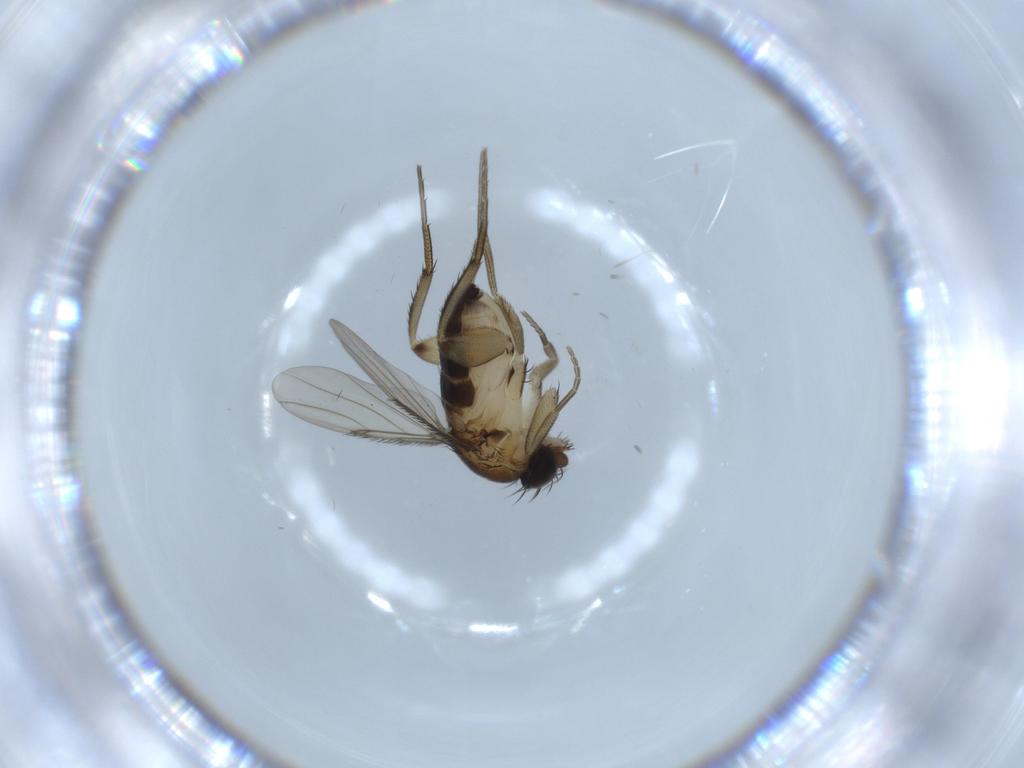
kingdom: Animalia
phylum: Arthropoda
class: Insecta
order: Diptera
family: Phoridae
